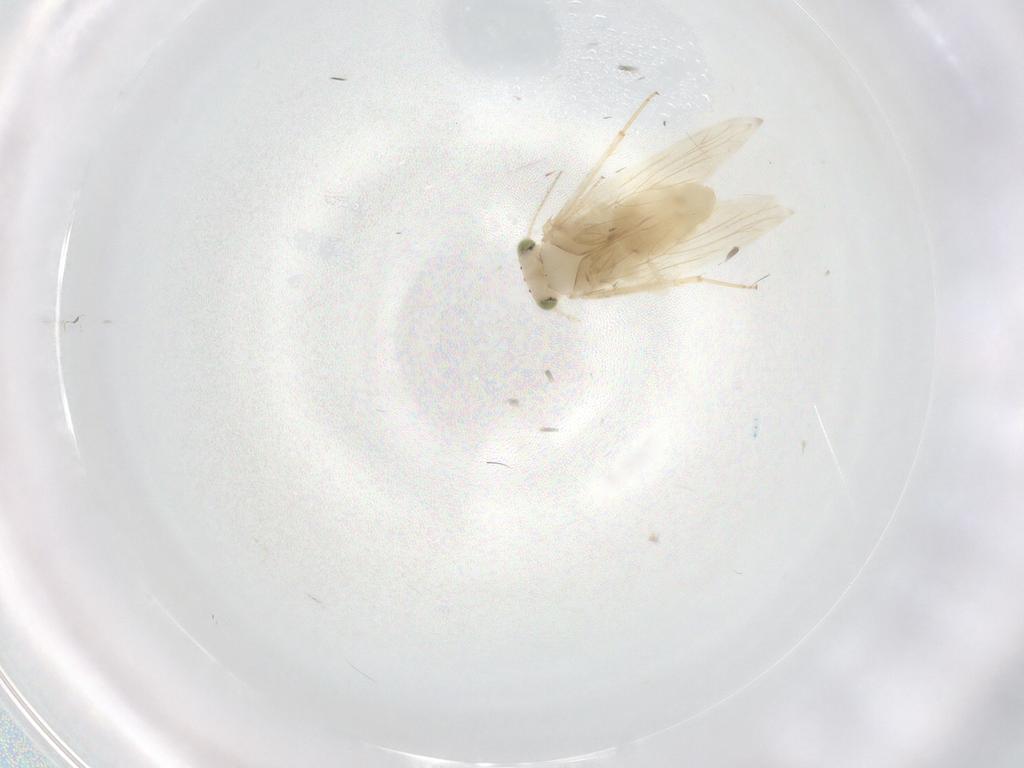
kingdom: Animalia
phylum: Arthropoda
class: Insecta
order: Psocodea
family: Lepidopsocidae
